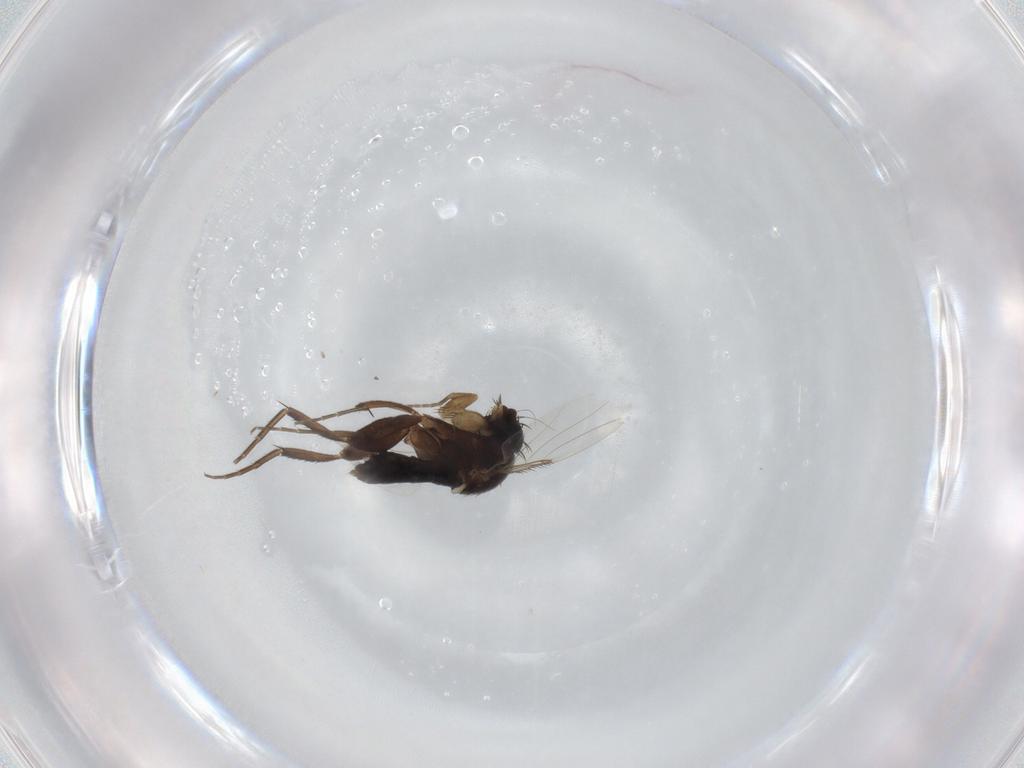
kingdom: Animalia
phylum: Arthropoda
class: Insecta
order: Diptera
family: Phoridae
